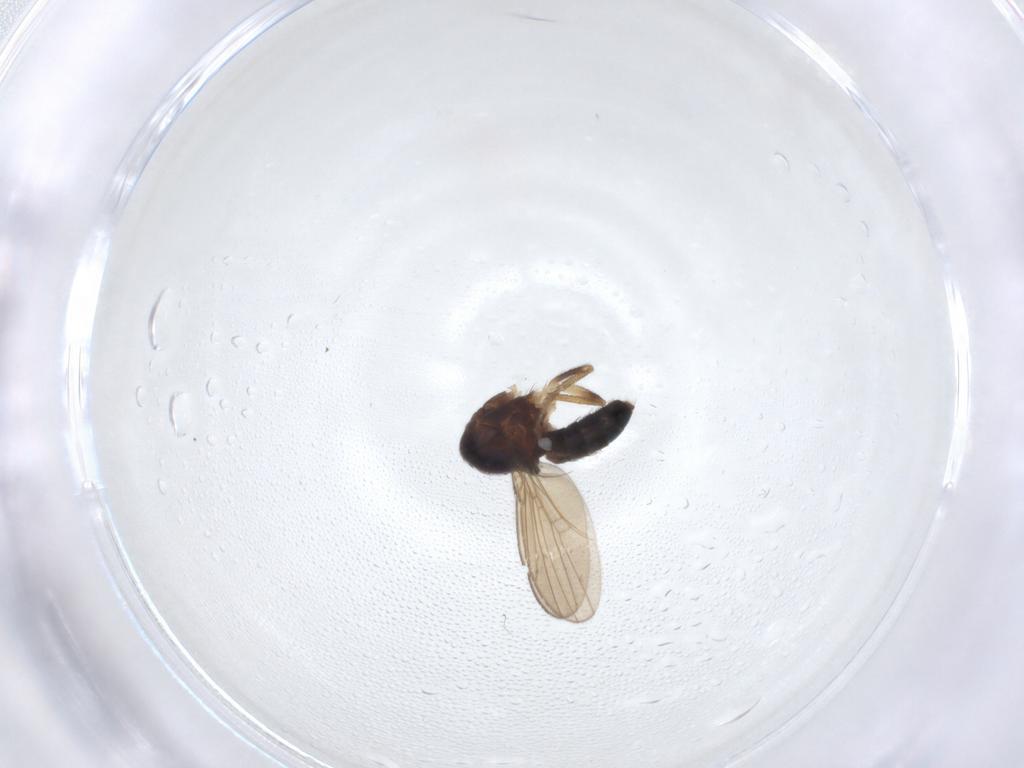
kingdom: Animalia
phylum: Arthropoda
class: Insecta
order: Diptera
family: Drosophilidae
